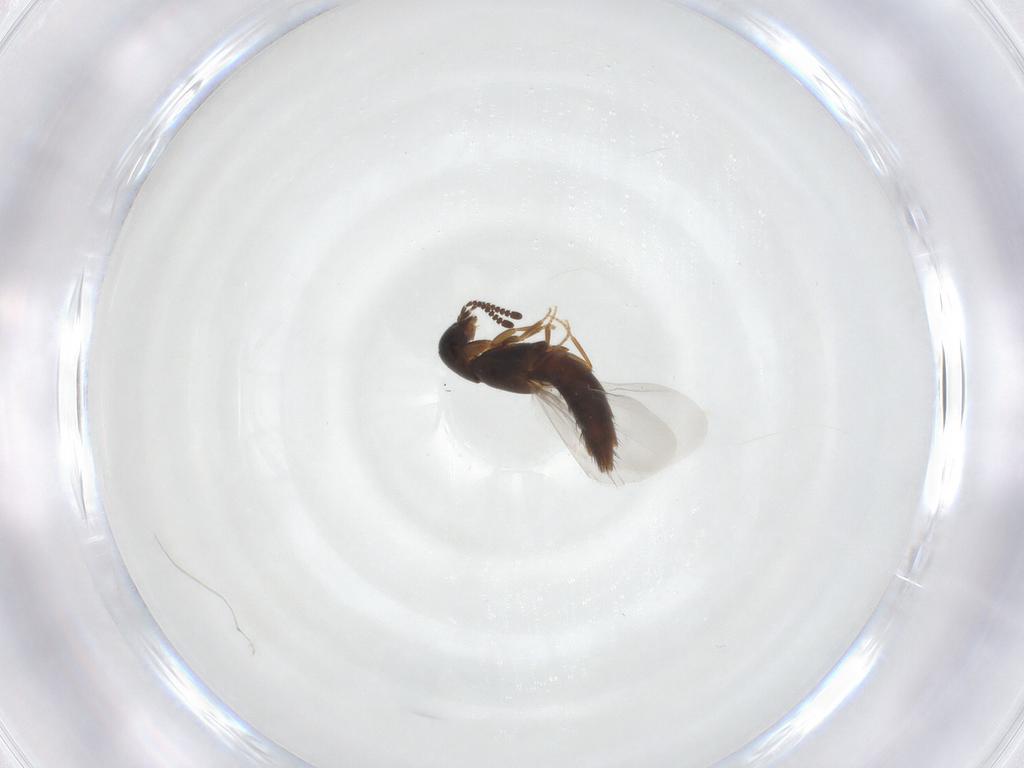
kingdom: Animalia
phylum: Arthropoda
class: Insecta
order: Coleoptera
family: Staphylinidae
